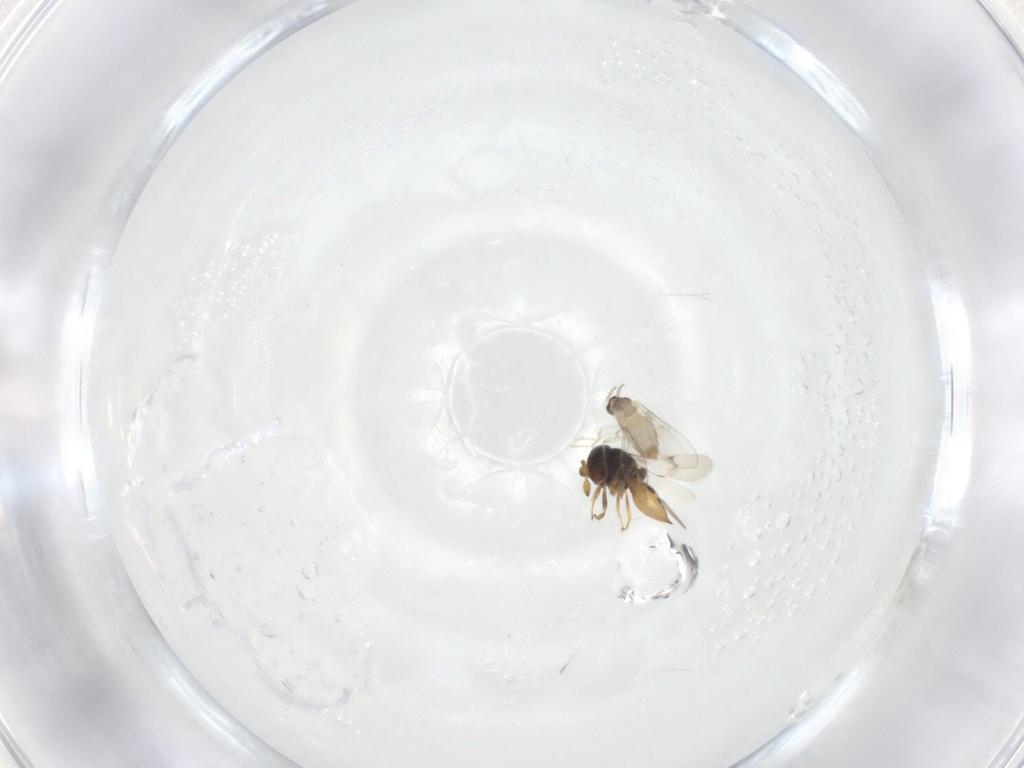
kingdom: Animalia
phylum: Arthropoda
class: Insecta
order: Diptera
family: Cecidomyiidae
